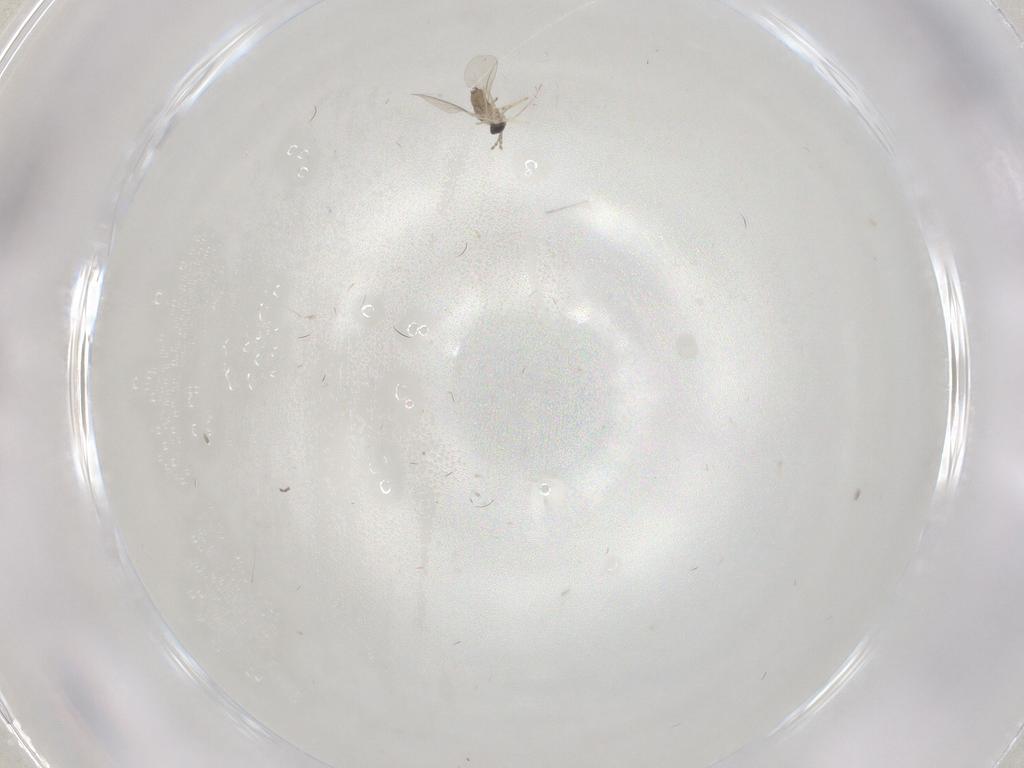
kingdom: Animalia
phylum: Arthropoda
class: Insecta
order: Diptera
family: Cecidomyiidae
